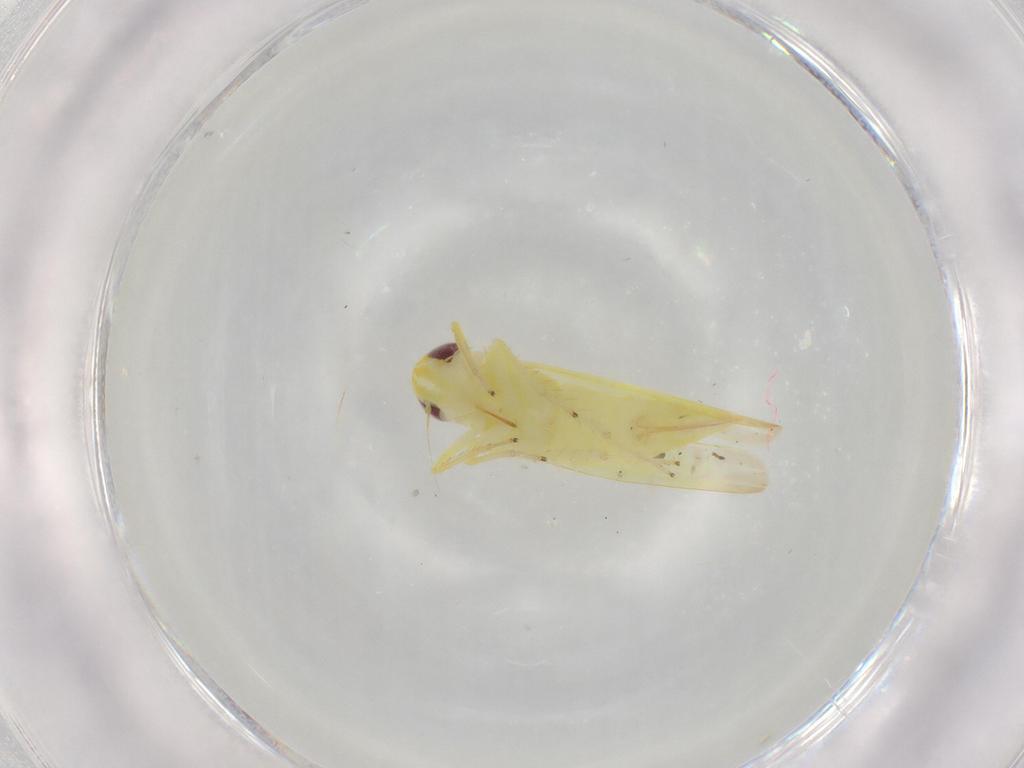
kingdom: Animalia
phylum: Arthropoda
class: Insecta
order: Hemiptera
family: Cicadellidae
